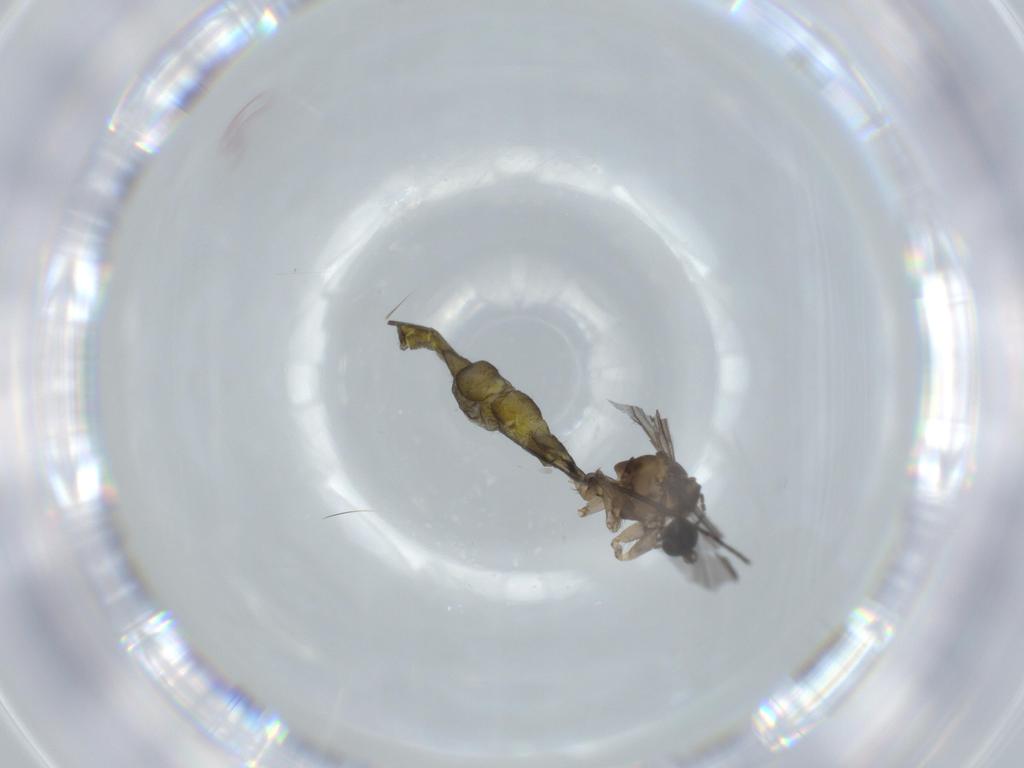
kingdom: Animalia
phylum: Arthropoda
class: Insecta
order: Diptera
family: Sciaridae
